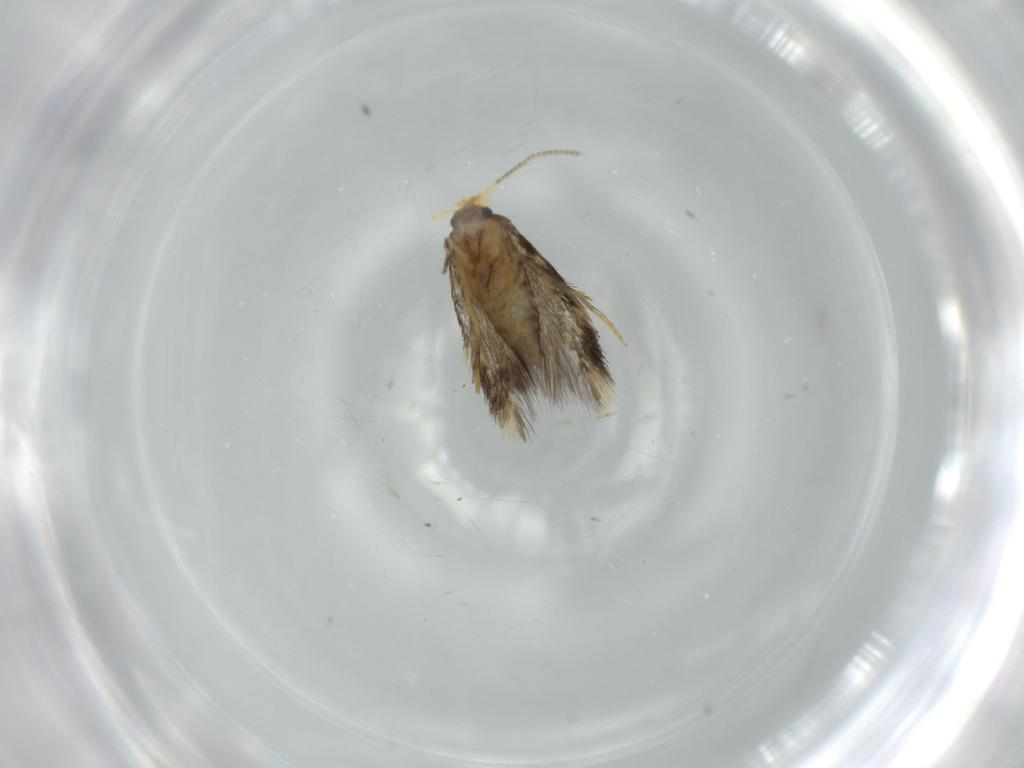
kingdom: Animalia
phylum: Arthropoda
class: Insecta
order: Lepidoptera
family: Nepticulidae
